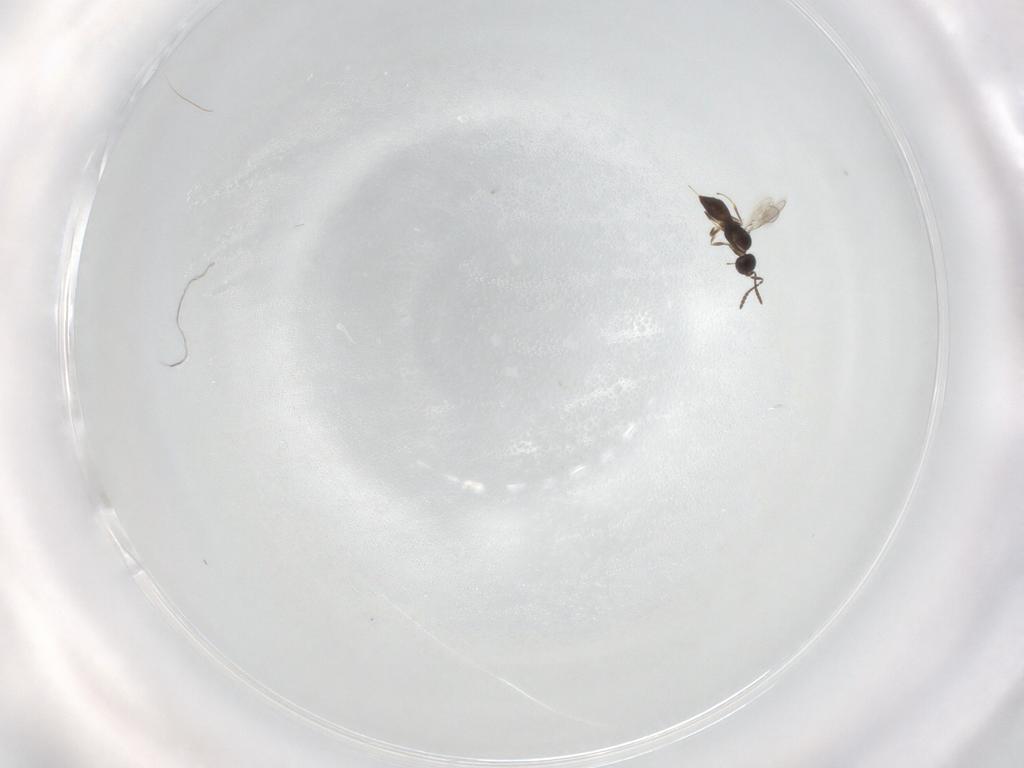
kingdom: Animalia
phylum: Arthropoda
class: Insecta
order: Hymenoptera
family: Scelionidae
